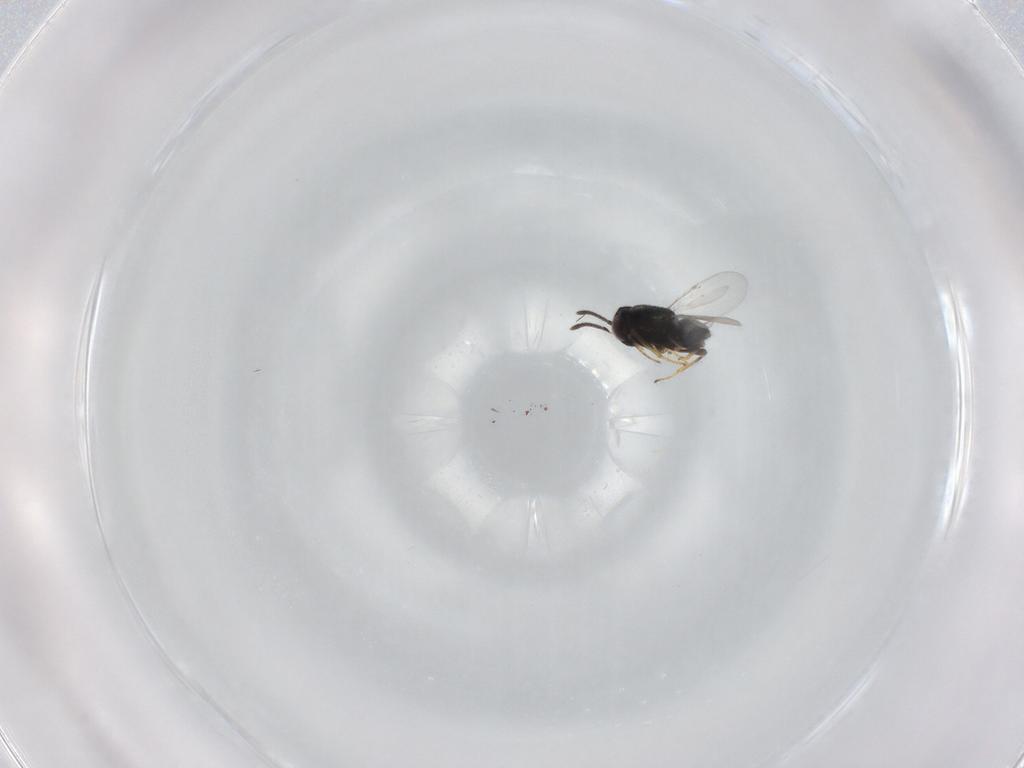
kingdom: Animalia
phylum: Arthropoda
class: Insecta
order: Hymenoptera
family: Encyrtidae
